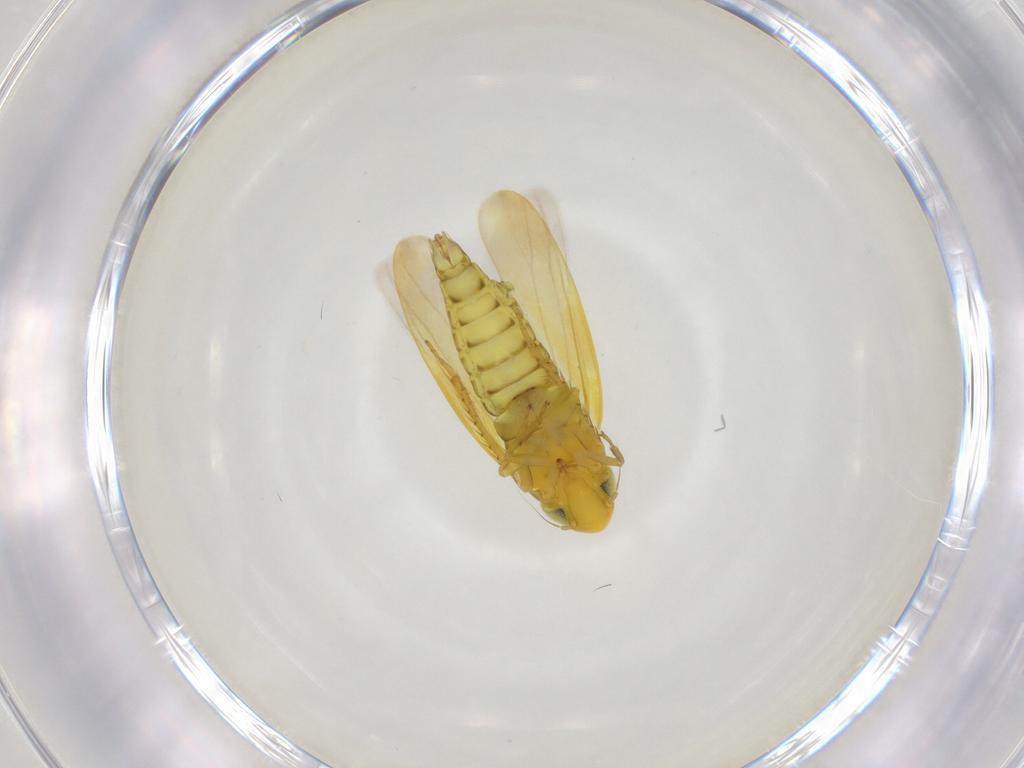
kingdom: Animalia
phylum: Arthropoda
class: Insecta
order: Hemiptera
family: Cicadellidae
